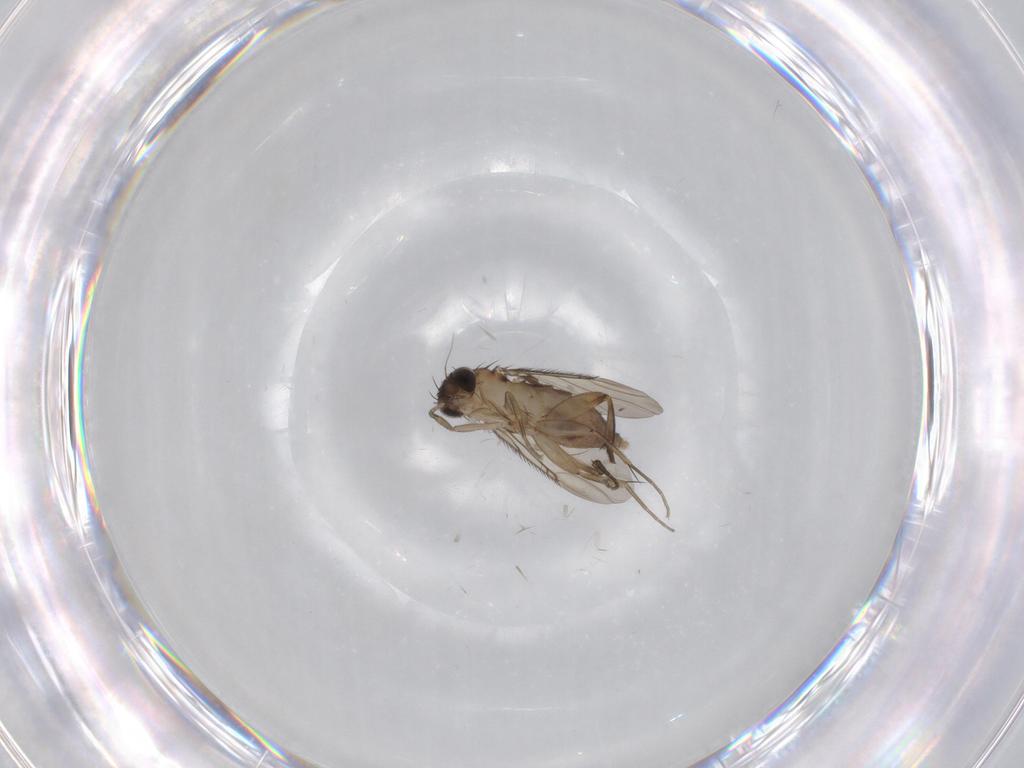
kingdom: Animalia
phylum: Arthropoda
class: Insecta
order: Diptera
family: Phoridae
